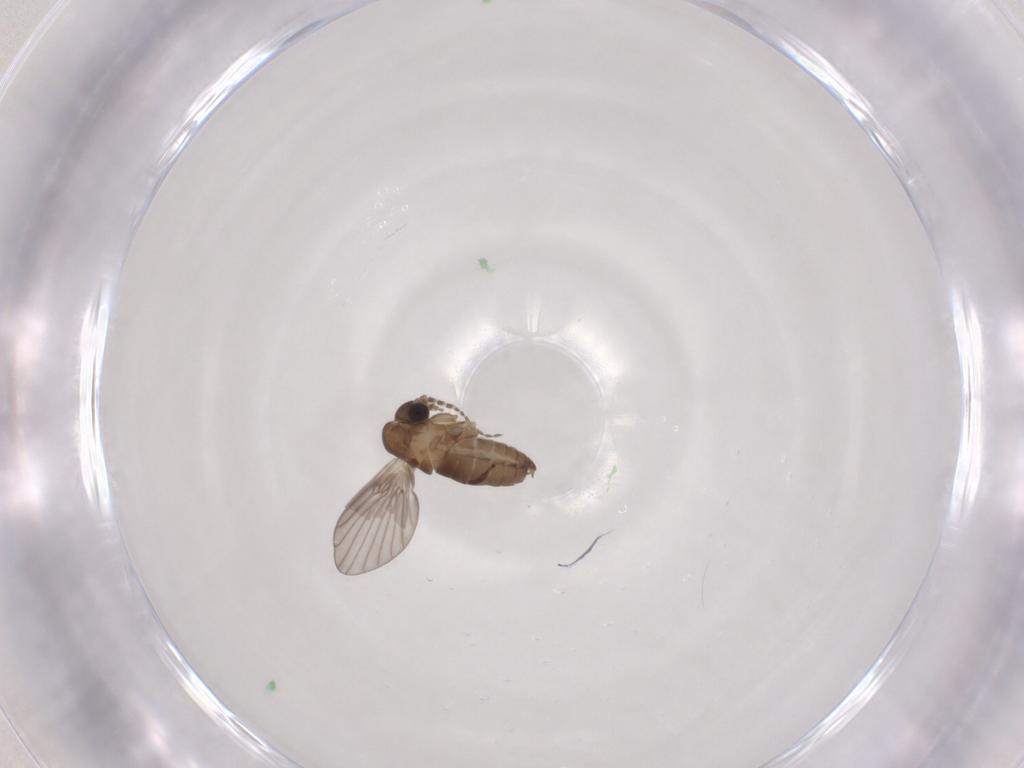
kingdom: Animalia
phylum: Arthropoda
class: Insecta
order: Diptera
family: Psychodidae
